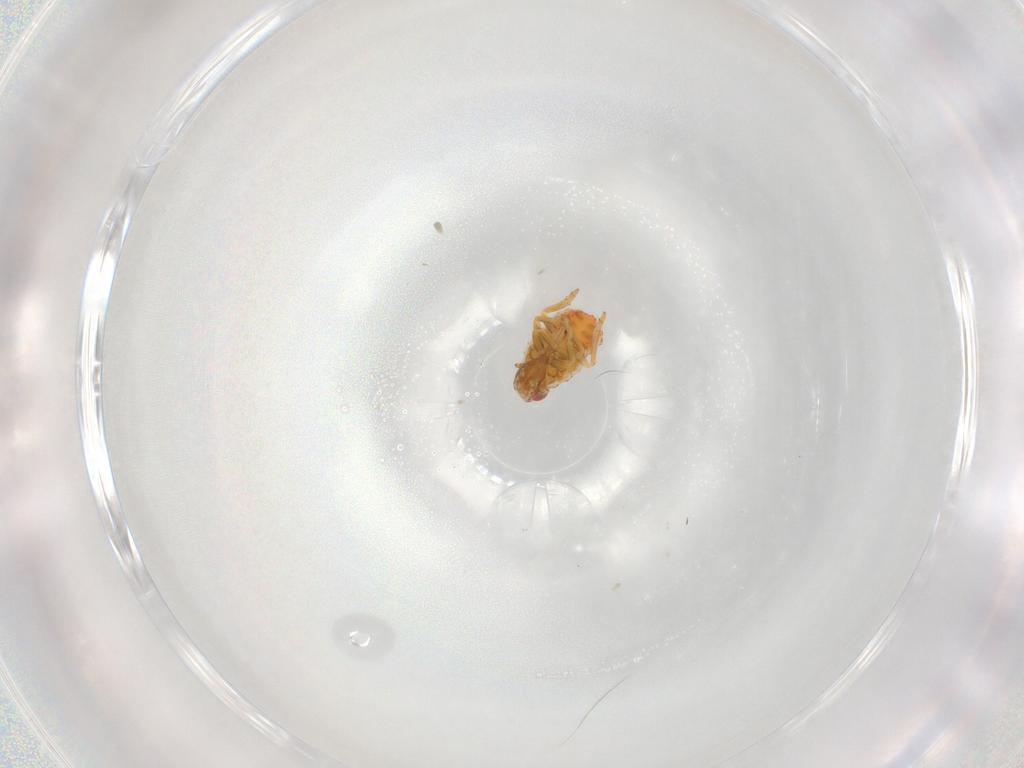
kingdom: Animalia
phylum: Arthropoda
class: Insecta
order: Hemiptera
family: Issidae
